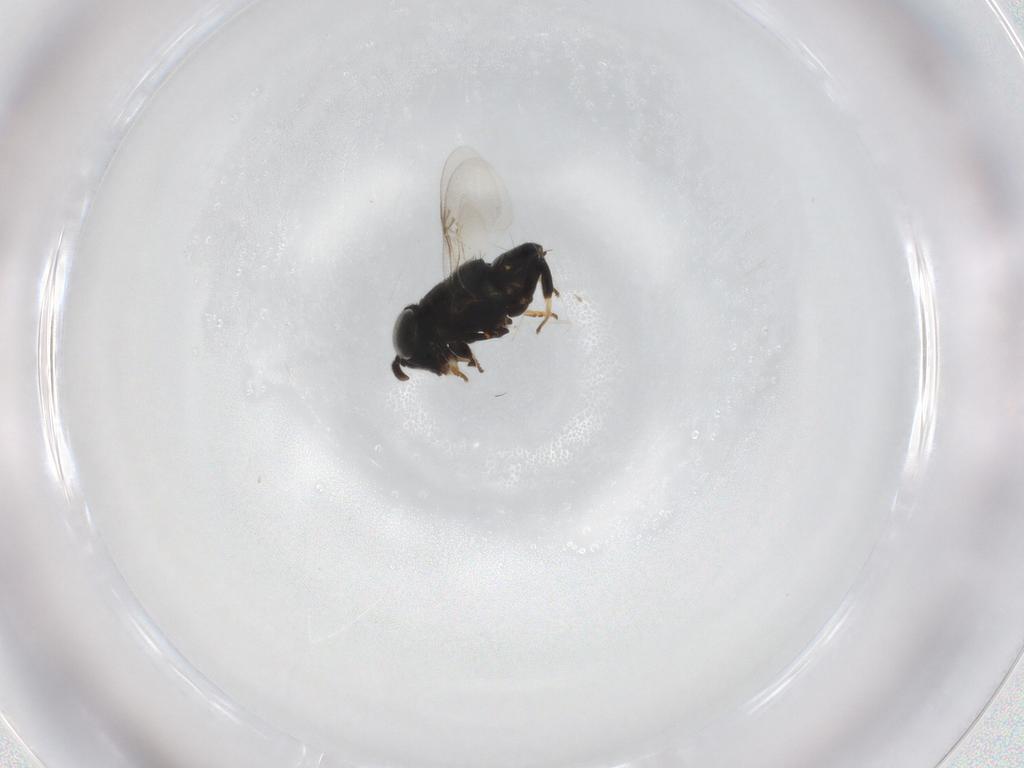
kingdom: Animalia
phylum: Arthropoda
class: Insecta
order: Hymenoptera
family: Encyrtidae
